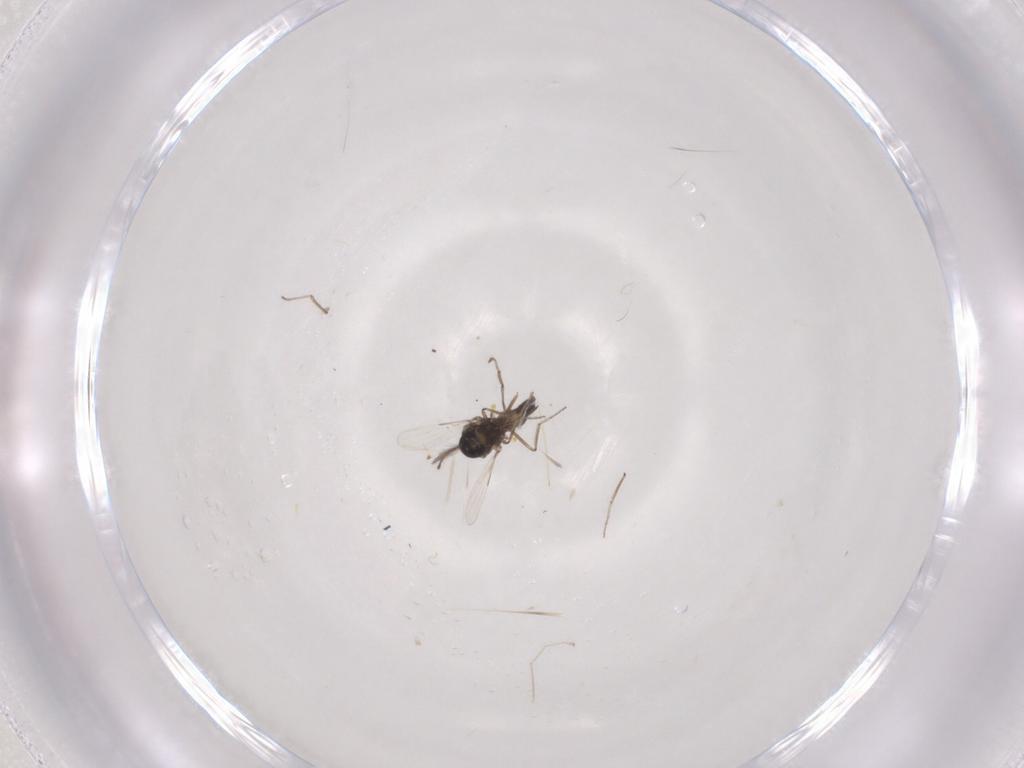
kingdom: Animalia
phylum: Arthropoda
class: Insecta
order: Diptera
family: Ceratopogonidae
